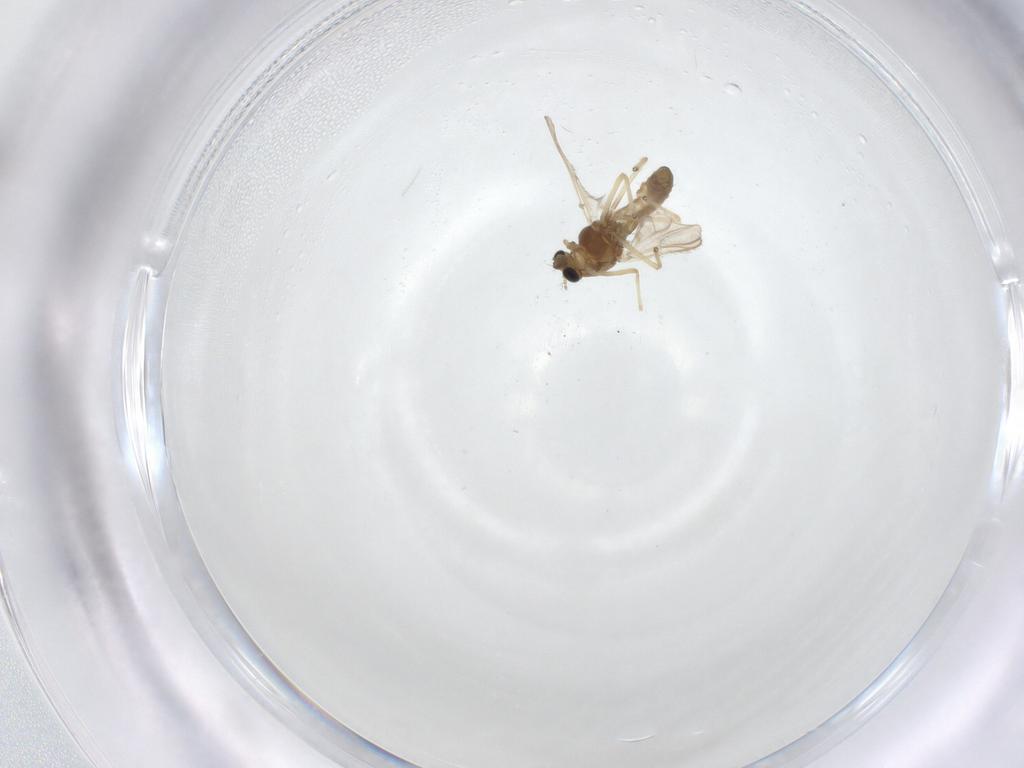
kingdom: Animalia
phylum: Arthropoda
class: Insecta
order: Diptera
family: Chironomidae
